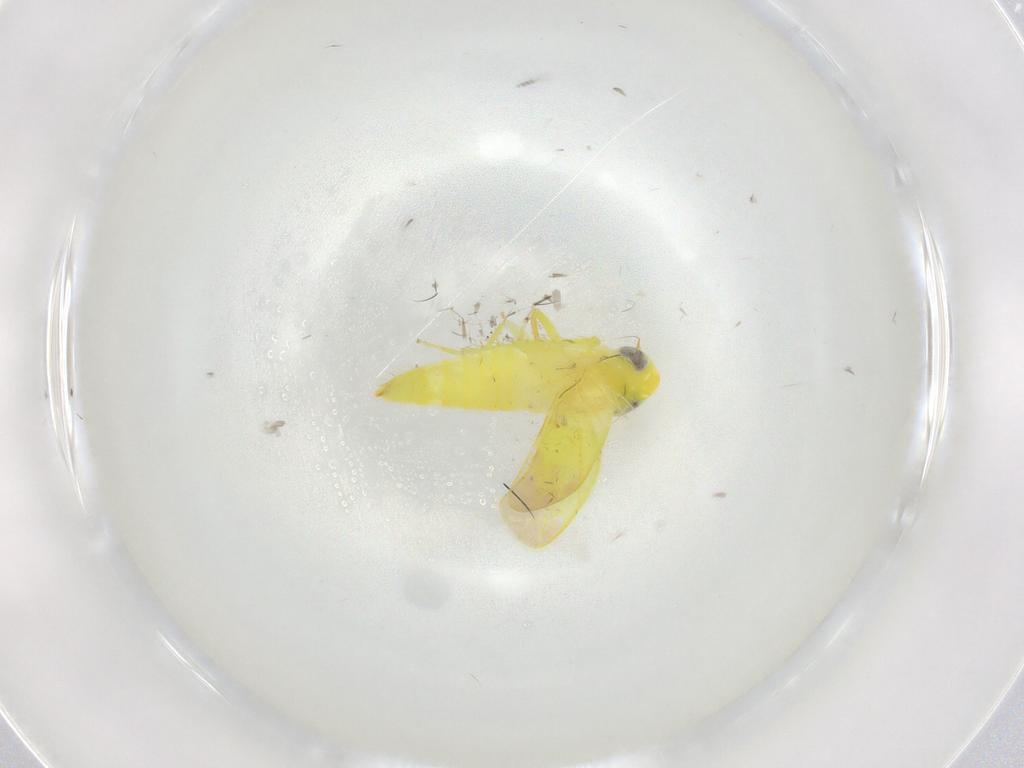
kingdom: Animalia
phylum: Arthropoda
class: Insecta
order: Hemiptera
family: Cicadellidae
